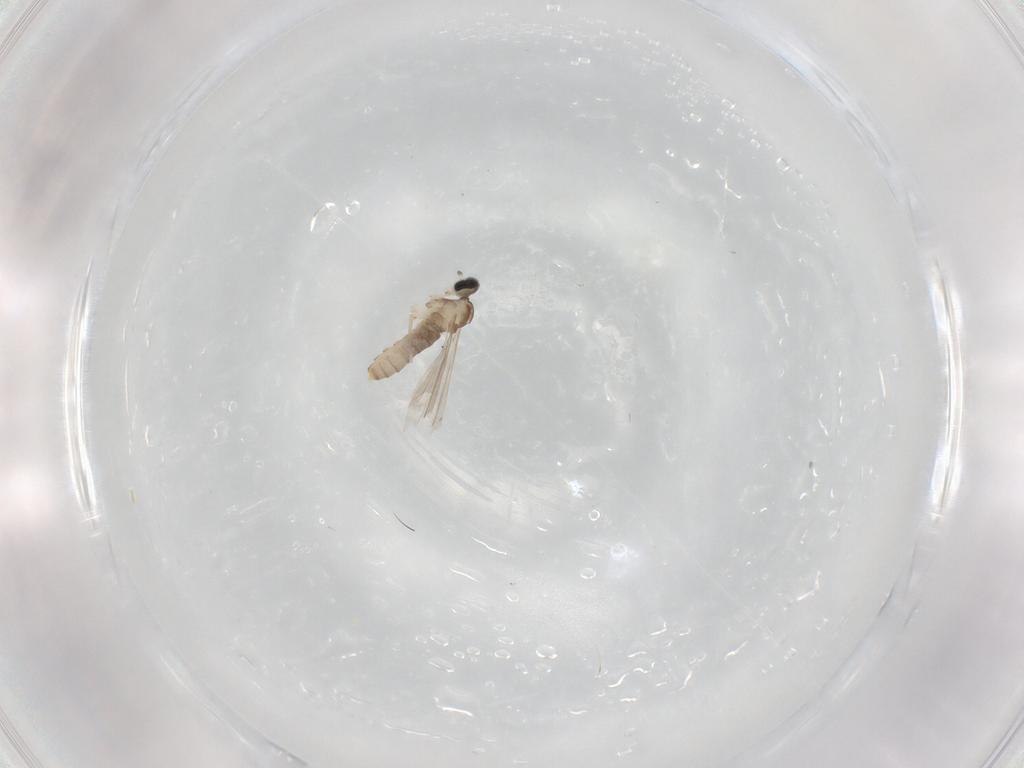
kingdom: Animalia
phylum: Arthropoda
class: Insecta
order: Diptera
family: Cecidomyiidae
